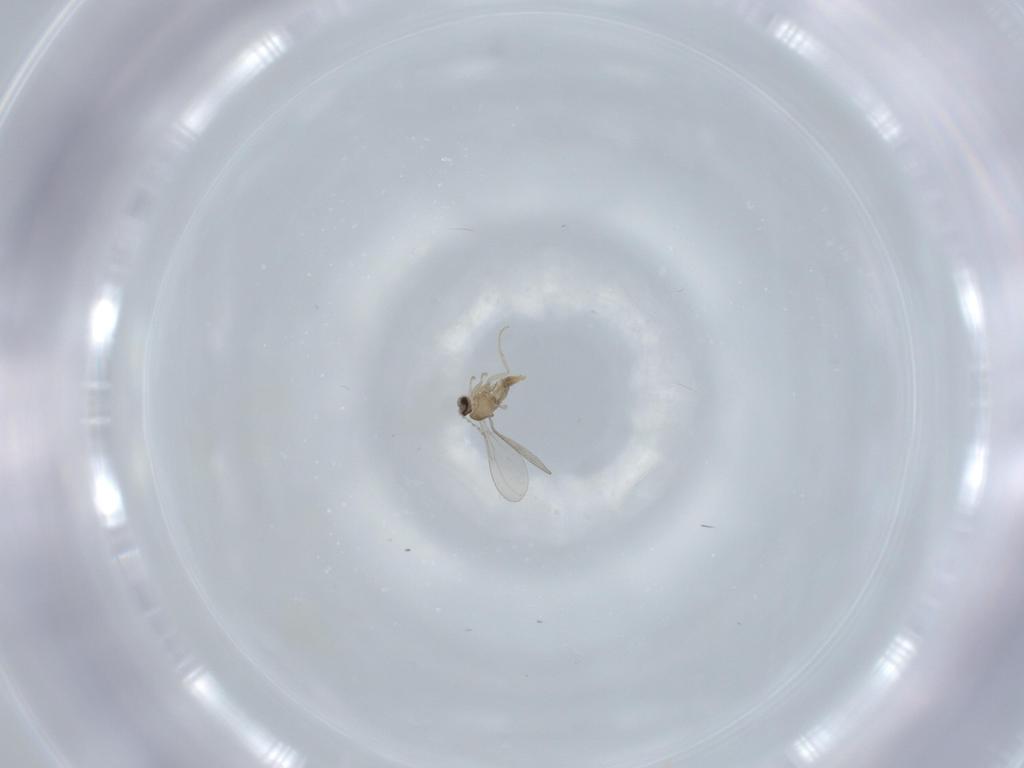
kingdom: Animalia
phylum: Arthropoda
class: Insecta
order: Diptera
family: Cecidomyiidae
